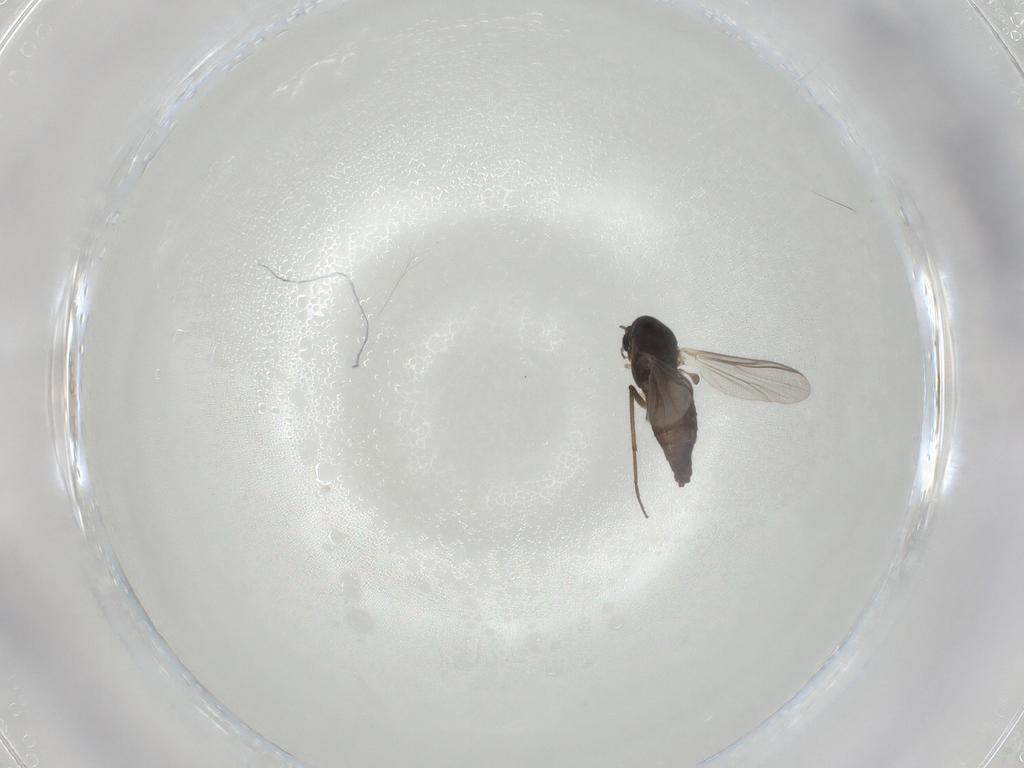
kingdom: Animalia
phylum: Arthropoda
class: Insecta
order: Diptera
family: Chironomidae
